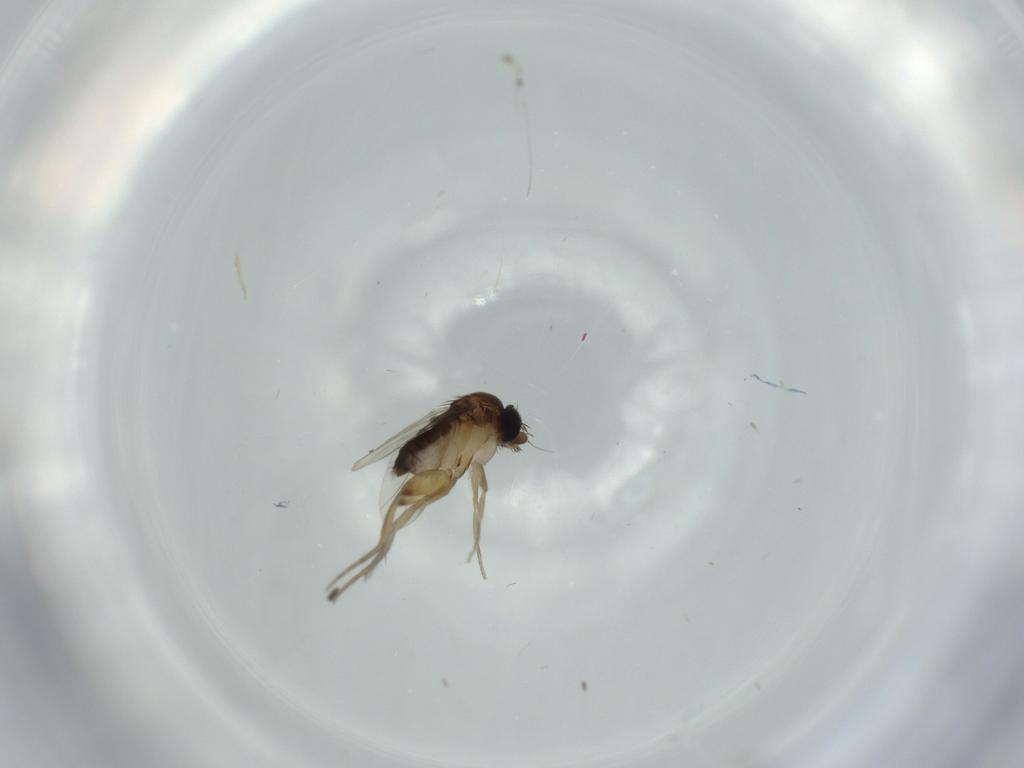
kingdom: Animalia
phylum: Arthropoda
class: Insecta
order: Diptera
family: Phoridae
